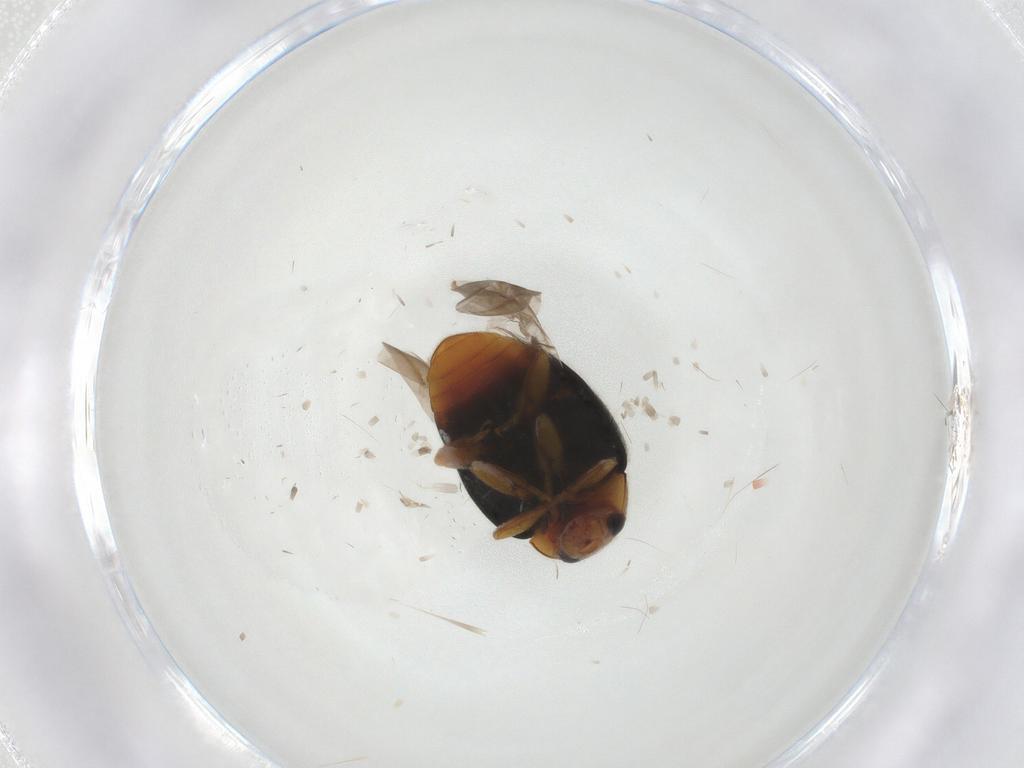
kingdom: Animalia
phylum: Arthropoda
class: Insecta
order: Coleoptera
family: Coccinellidae
